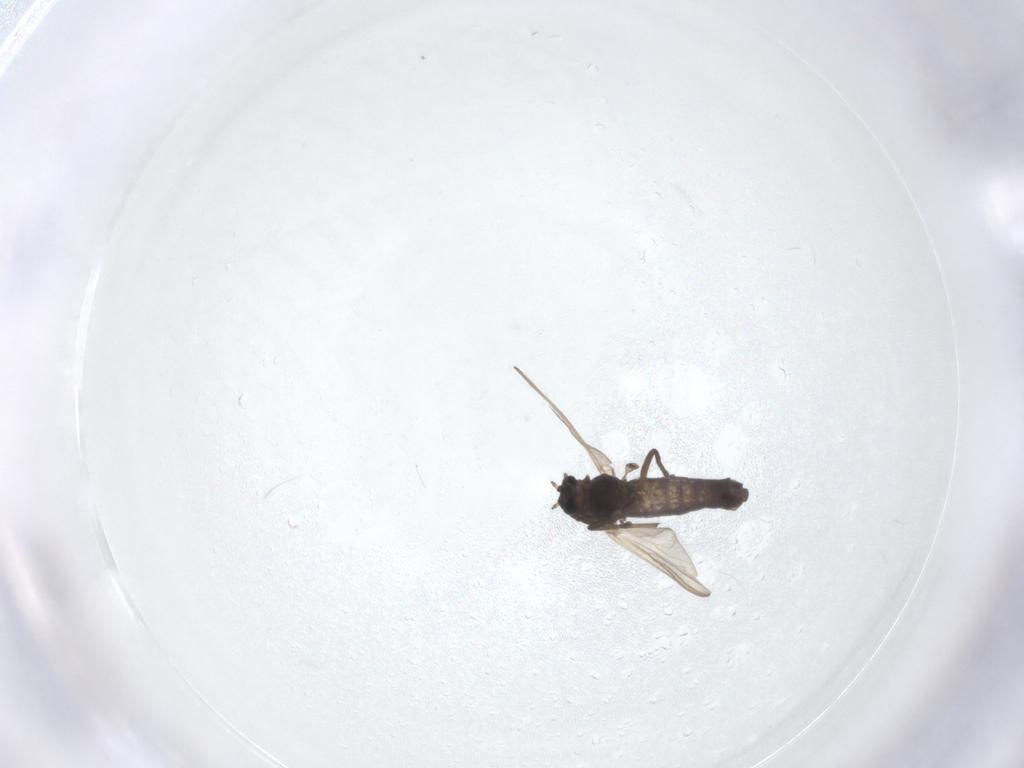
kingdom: Animalia
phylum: Arthropoda
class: Insecta
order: Diptera
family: Chironomidae
